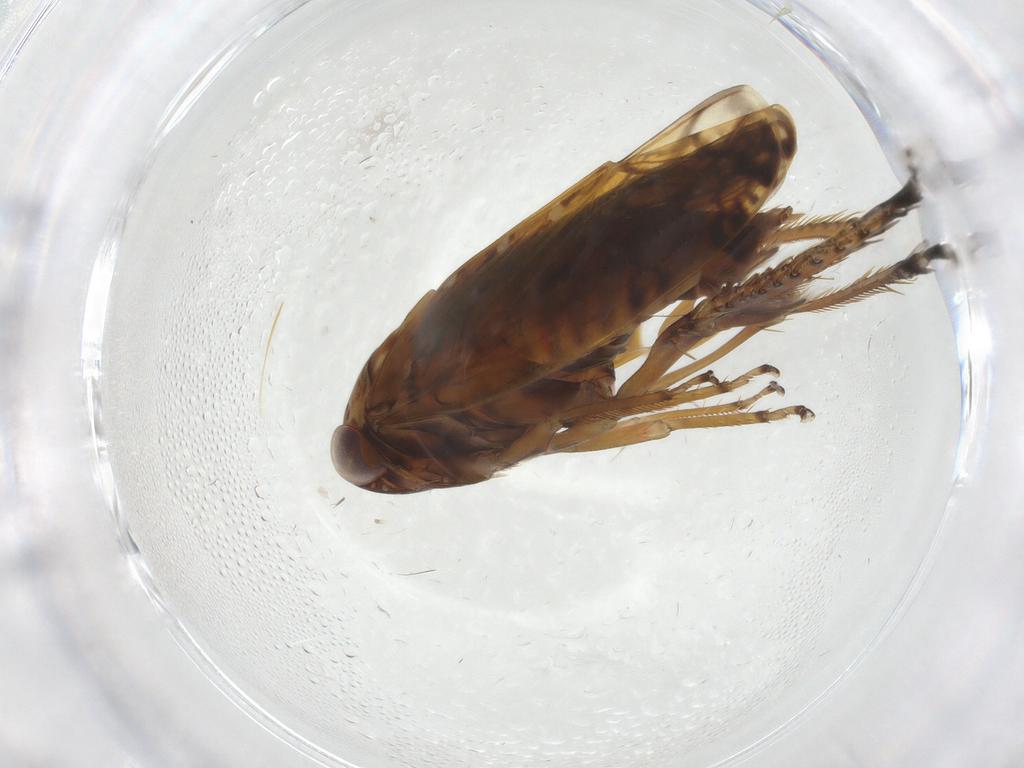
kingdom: Animalia
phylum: Arthropoda
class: Insecta
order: Hemiptera
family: Cicadellidae
